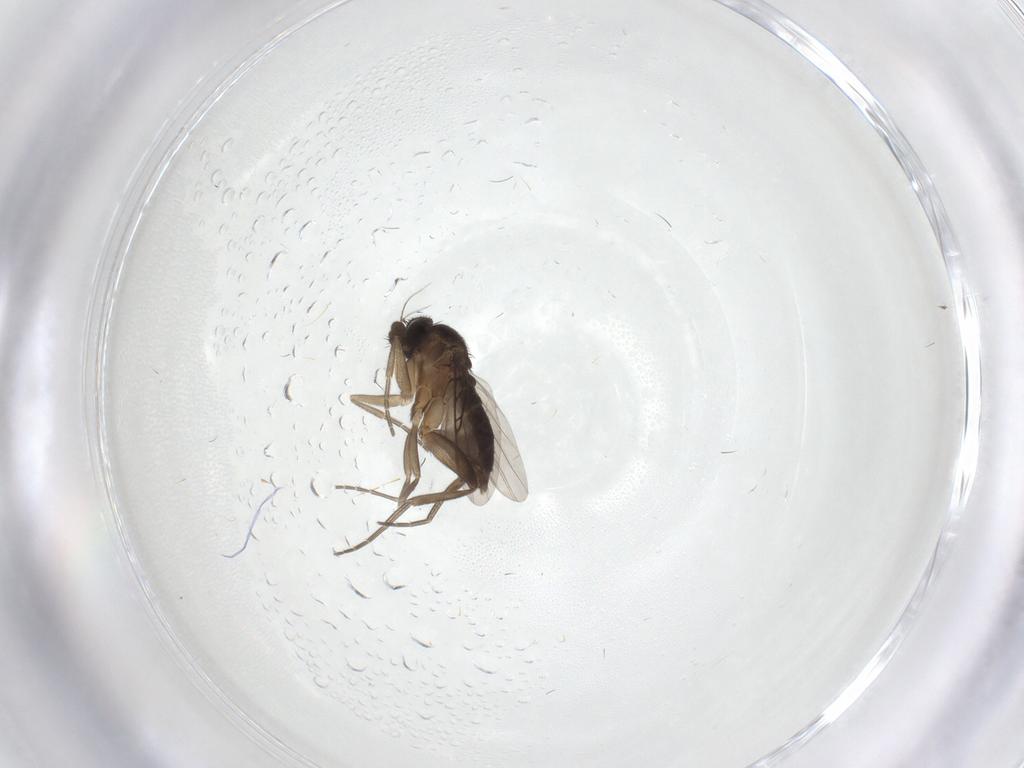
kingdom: Animalia
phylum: Arthropoda
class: Insecta
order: Diptera
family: Phoridae
